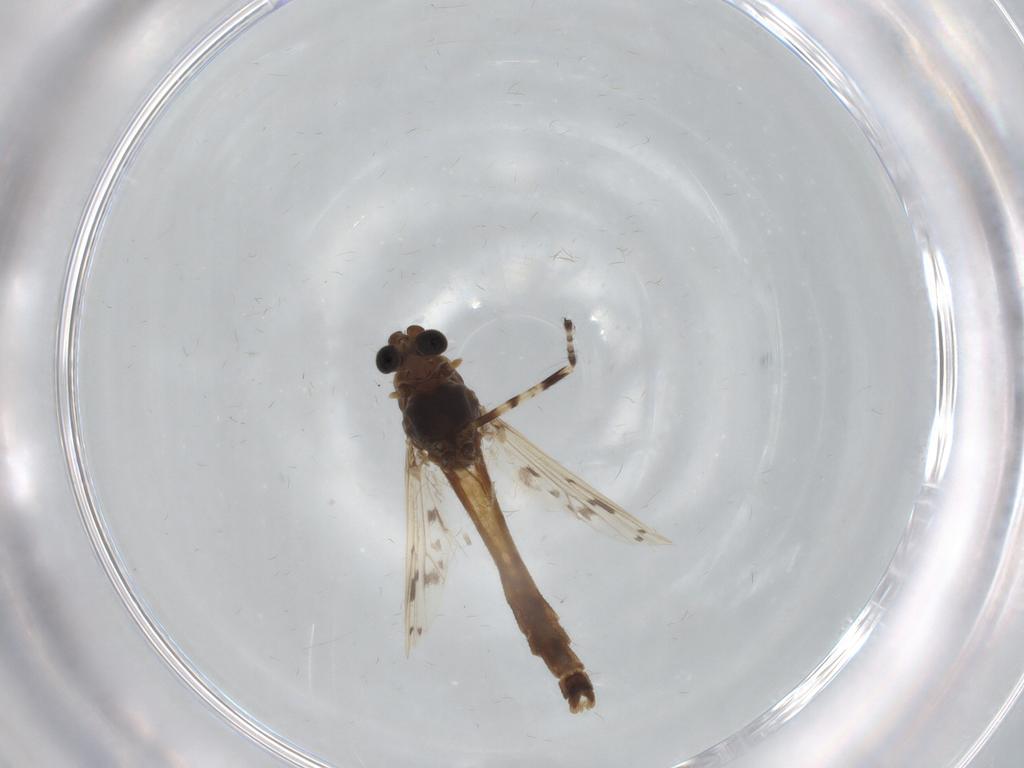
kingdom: Animalia
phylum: Arthropoda
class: Insecta
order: Diptera
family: Chironomidae
